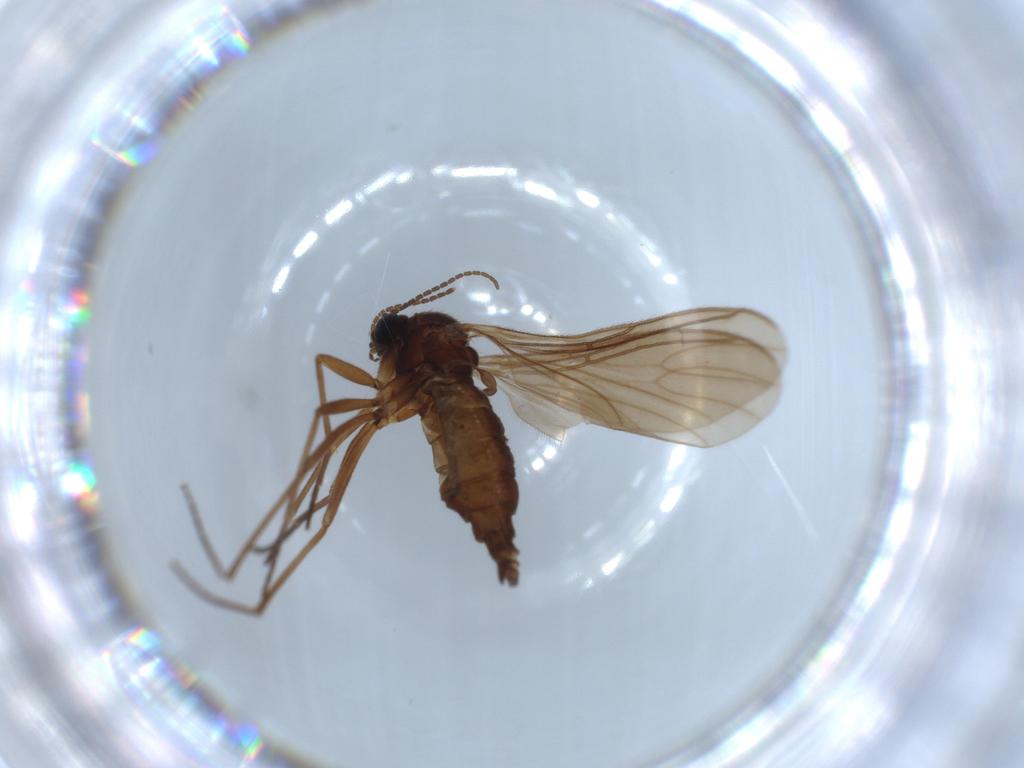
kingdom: Animalia
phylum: Arthropoda
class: Insecta
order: Diptera
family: Sciaridae
